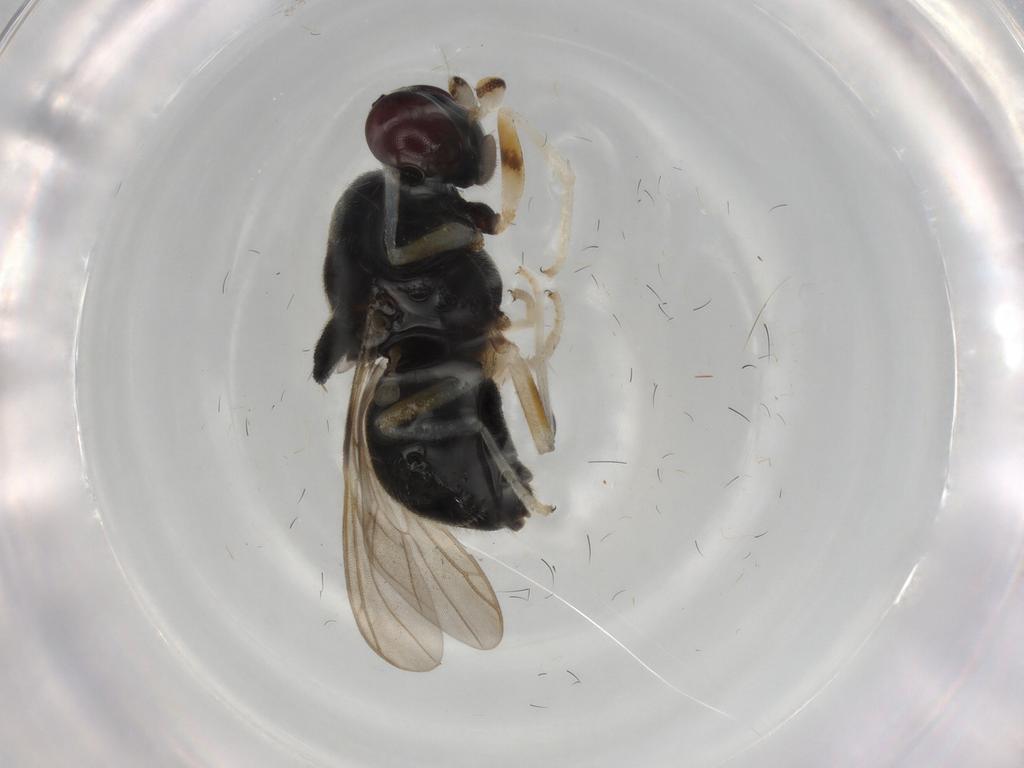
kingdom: Animalia
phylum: Arthropoda
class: Insecta
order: Diptera
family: Stratiomyidae
